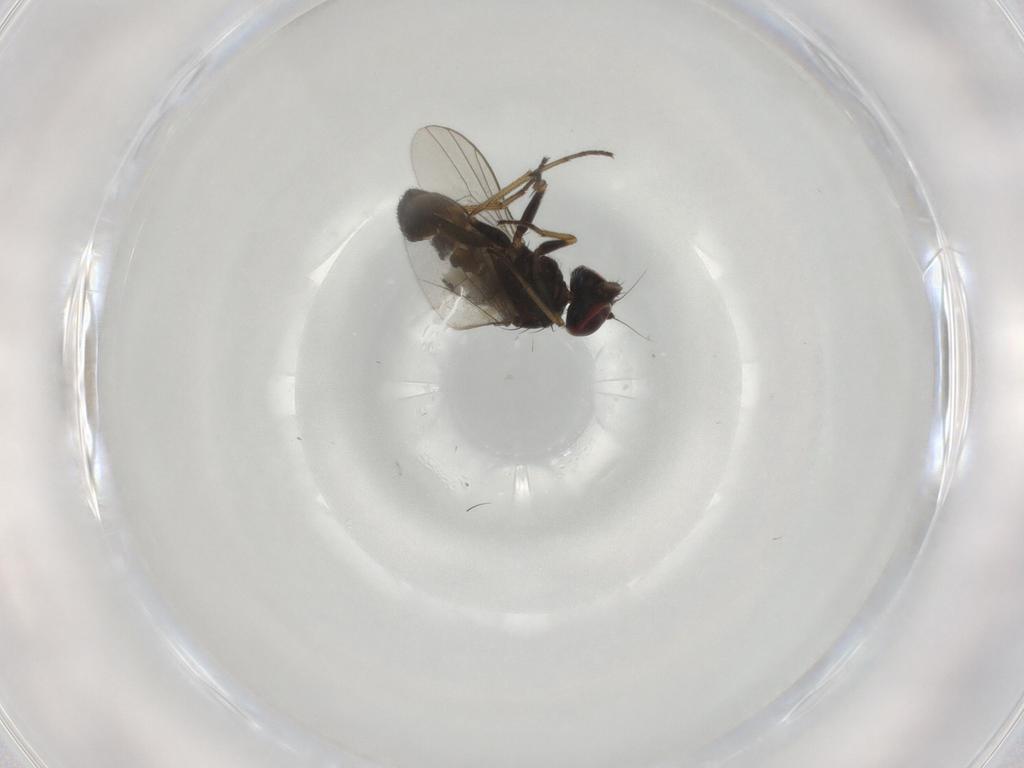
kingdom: Animalia
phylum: Arthropoda
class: Insecta
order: Diptera
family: Dolichopodidae
